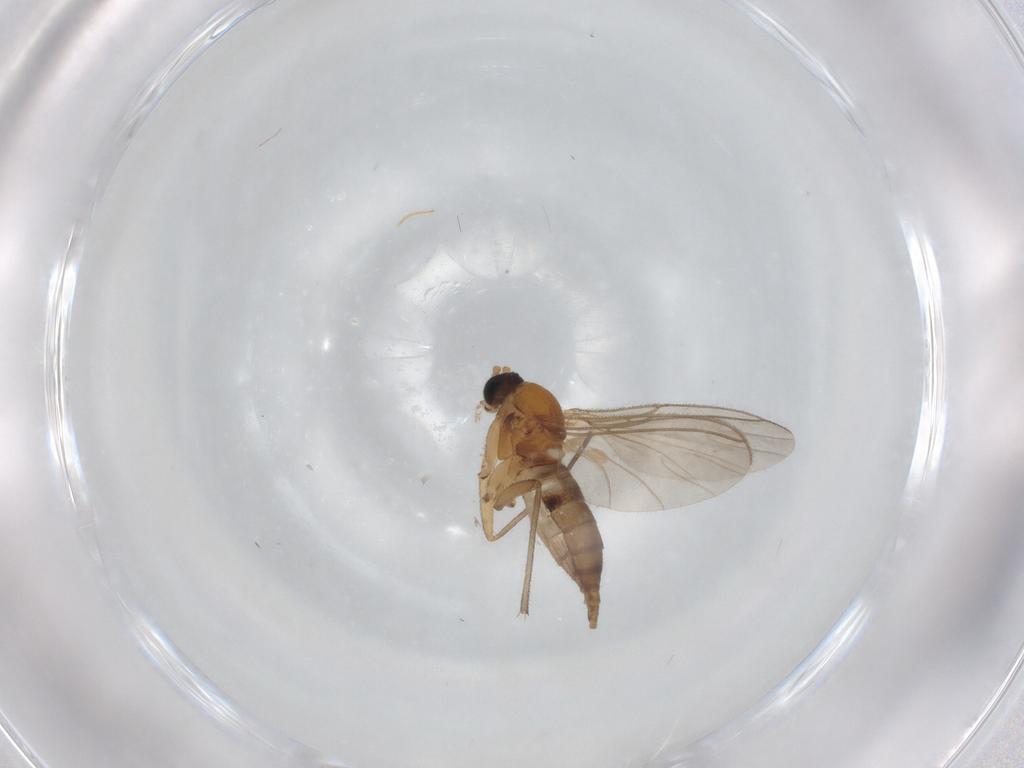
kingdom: Animalia
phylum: Arthropoda
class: Insecta
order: Diptera
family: Sciaridae
